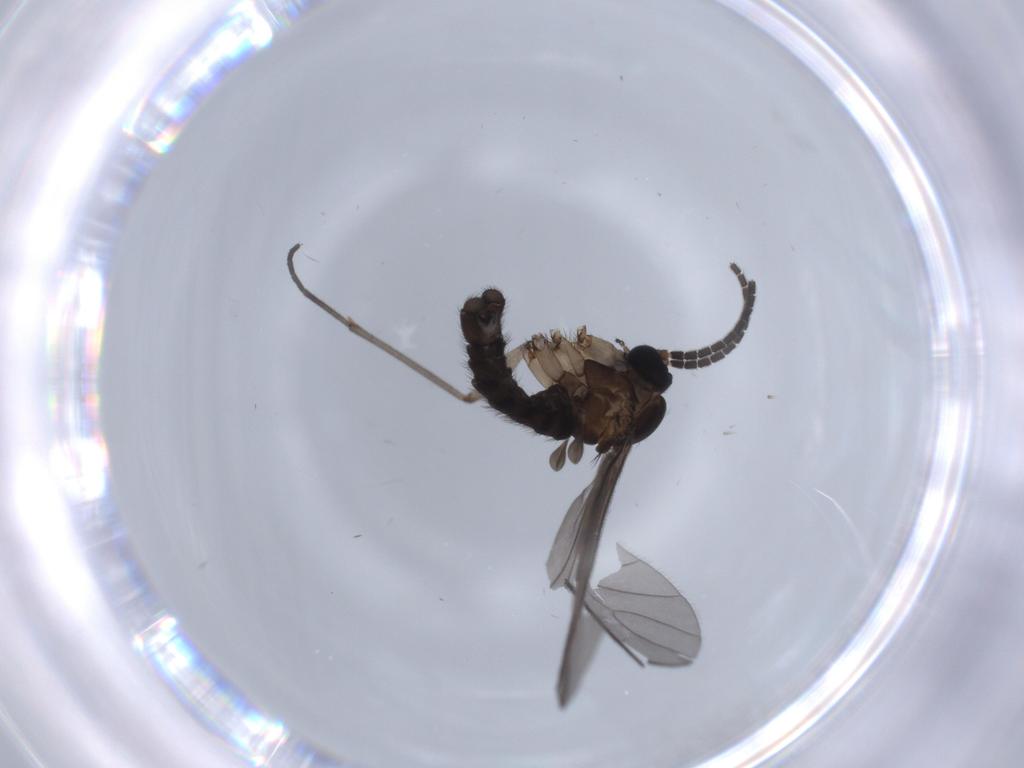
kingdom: Animalia
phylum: Arthropoda
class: Insecta
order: Diptera
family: Sciaridae
